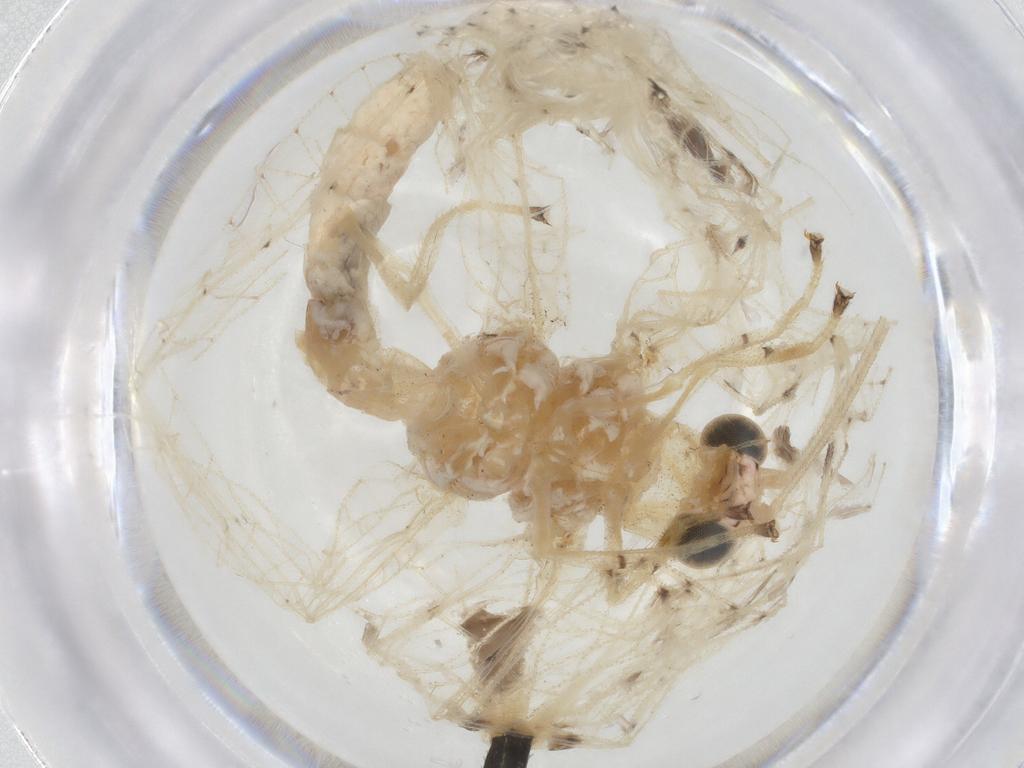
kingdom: Animalia
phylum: Arthropoda
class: Insecta
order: Neuroptera
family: Chrysopidae
